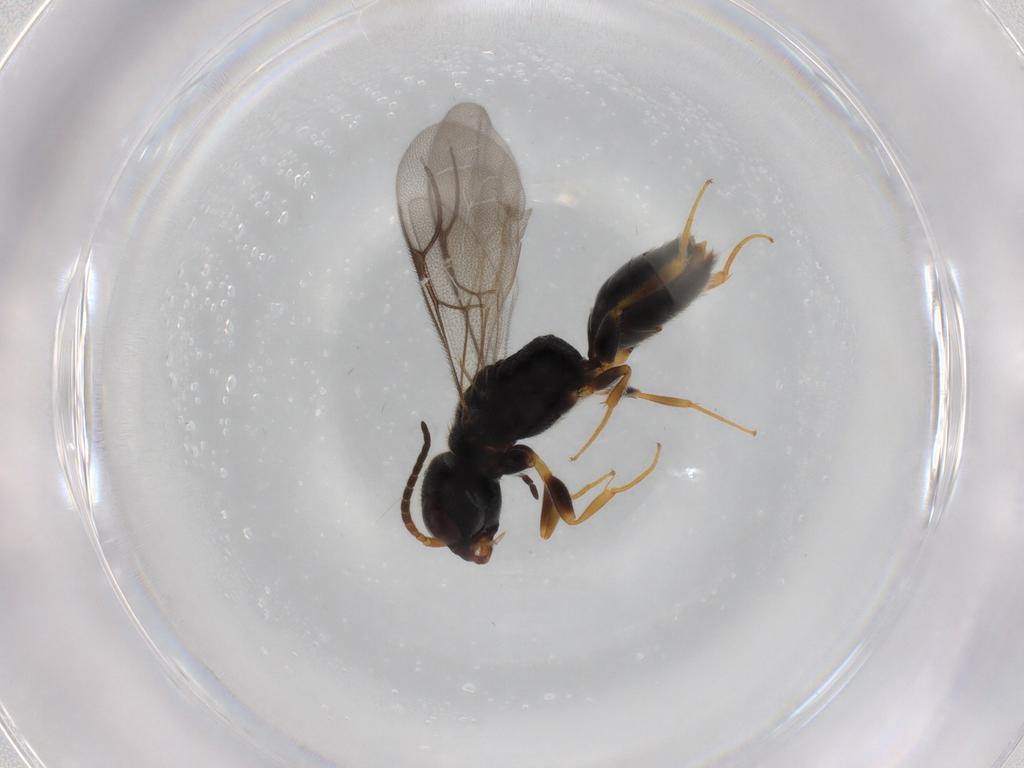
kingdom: Animalia
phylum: Arthropoda
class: Insecta
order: Hymenoptera
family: Bethylidae
